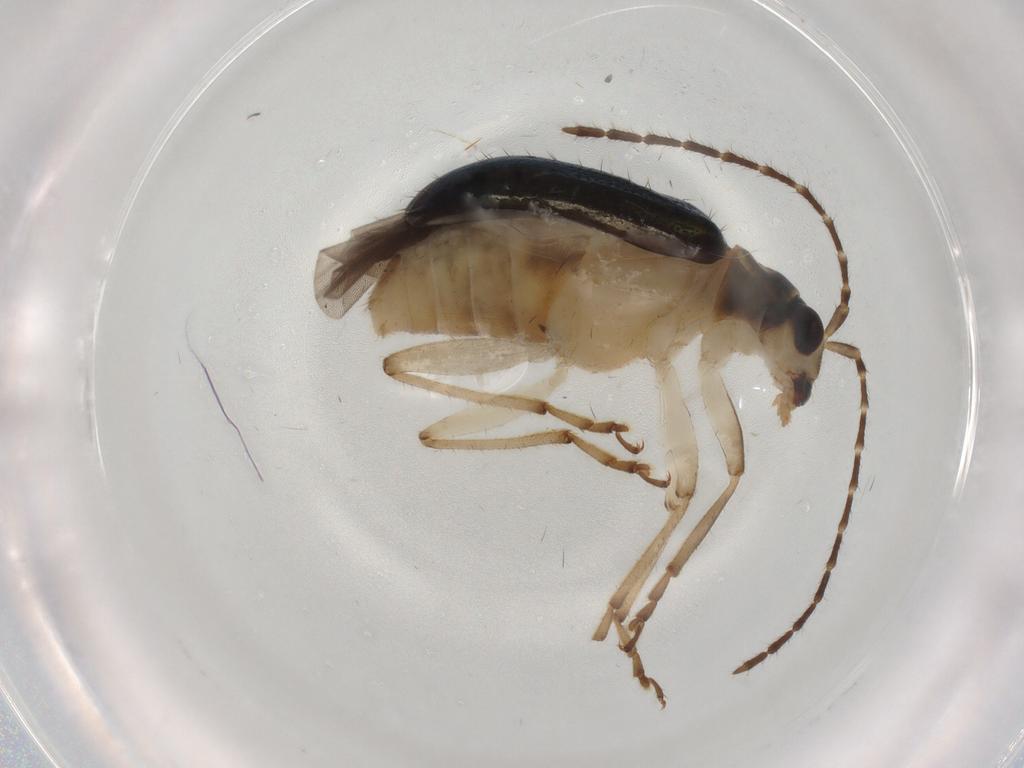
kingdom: Animalia
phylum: Arthropoda
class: Insecta
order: Coleoptera
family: Chrysomelidae
